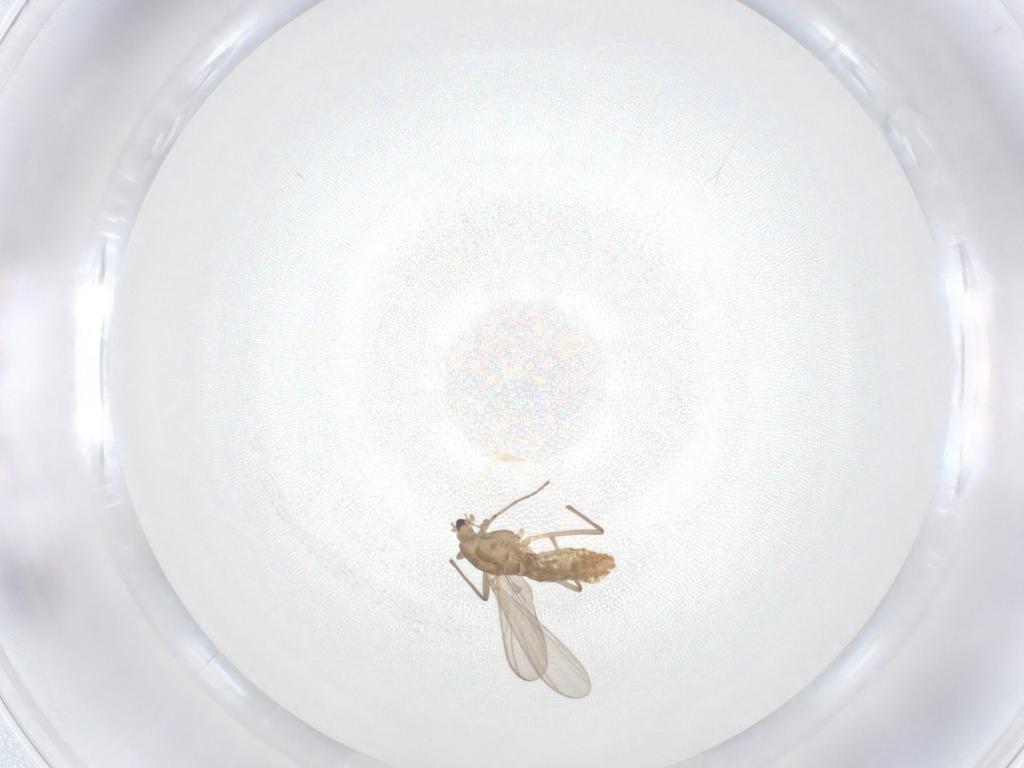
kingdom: Animalia
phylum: Arthropoda
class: Insecta
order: Diptera
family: Chironomidae
